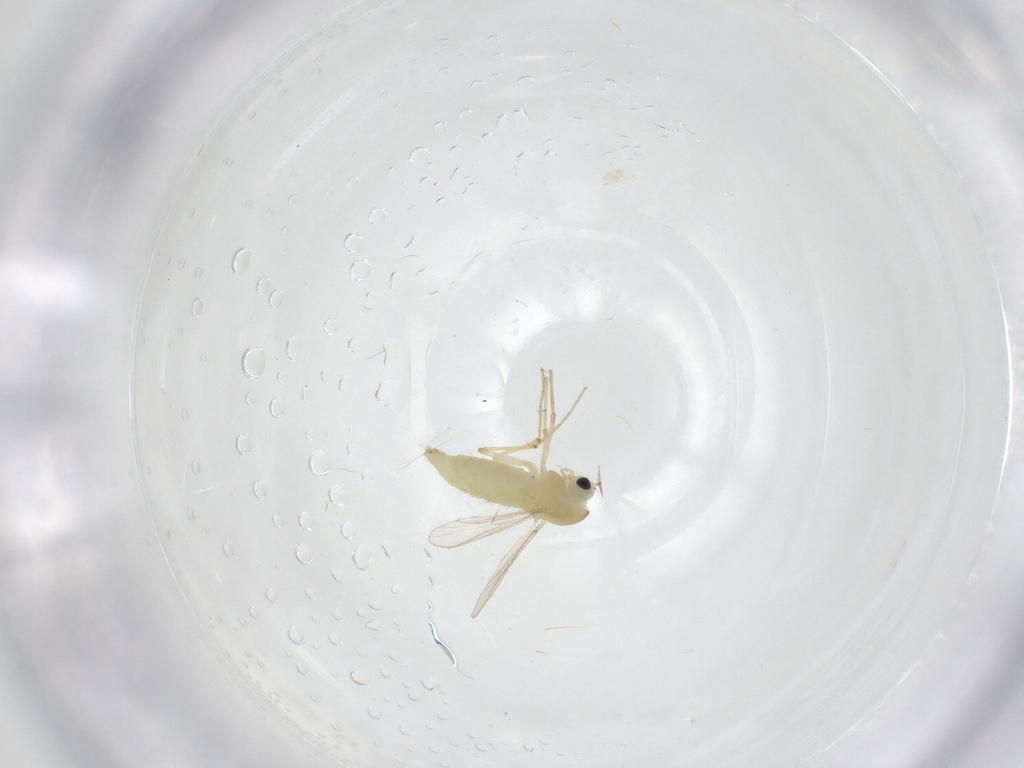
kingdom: Animalia
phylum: Arthropoda
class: Insecta
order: Diptera
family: Chironomidae
